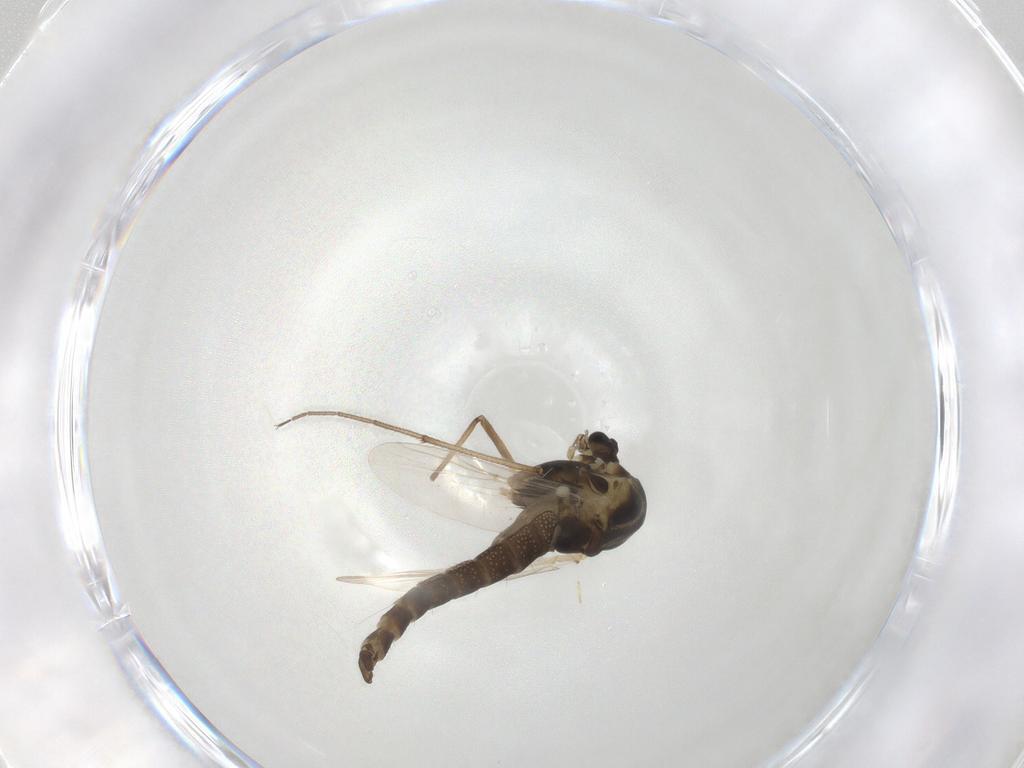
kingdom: Animalia
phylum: Arthropoda
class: Insecta
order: Diptera
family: Chironomidae
